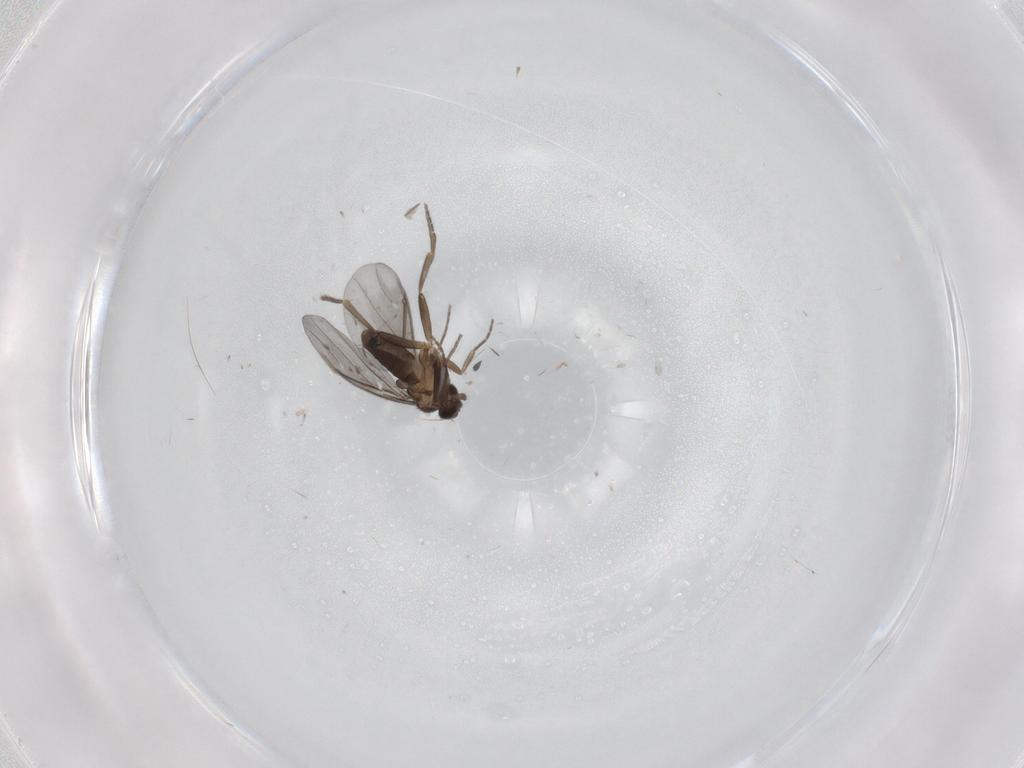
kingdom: Animalia
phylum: Arthropoda
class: Insecta
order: Diptera
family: Phoridae
